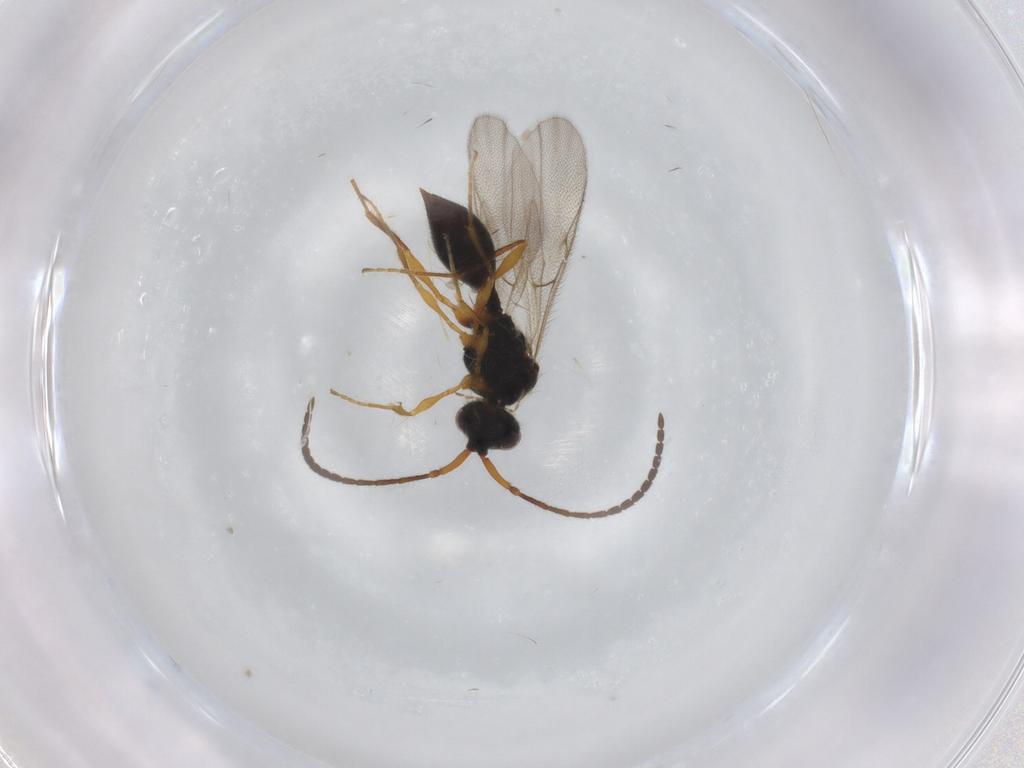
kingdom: Animalia
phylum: Arthropoda
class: Insecta
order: Hymenoptera
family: Diapriidae
